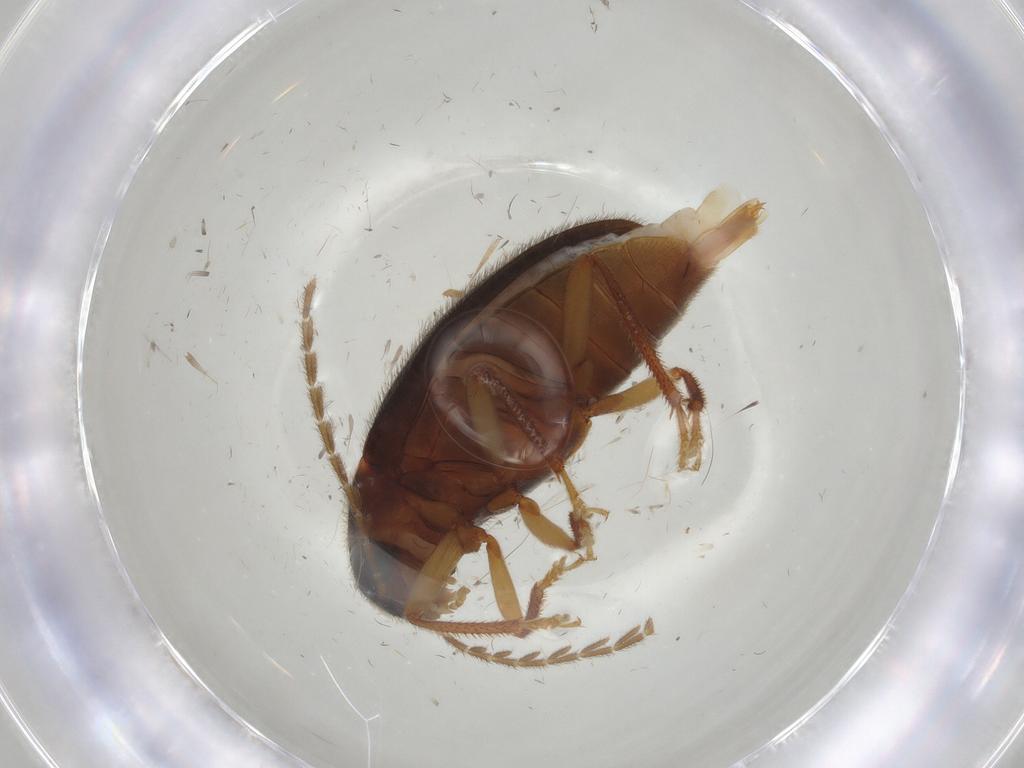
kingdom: Animalia
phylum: Arthropoda
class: Insecta
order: Coleoptera
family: Ptilodactylidae
